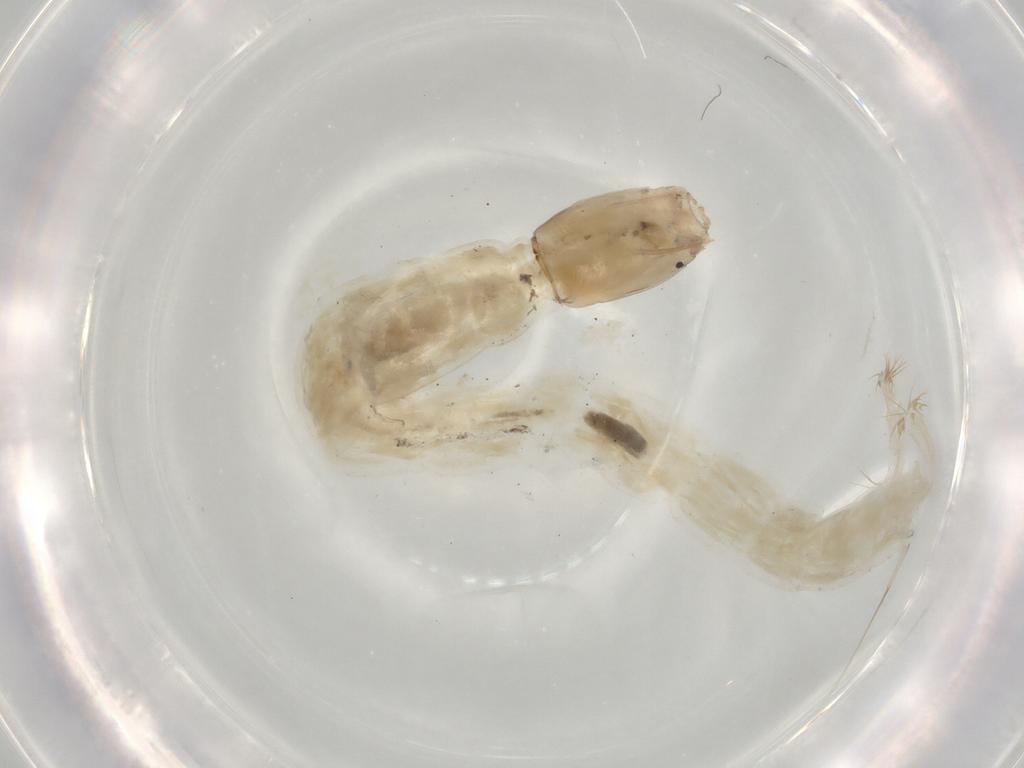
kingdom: Animalia
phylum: Arthropoda
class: Insecta
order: Diptera
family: Chironomidae
